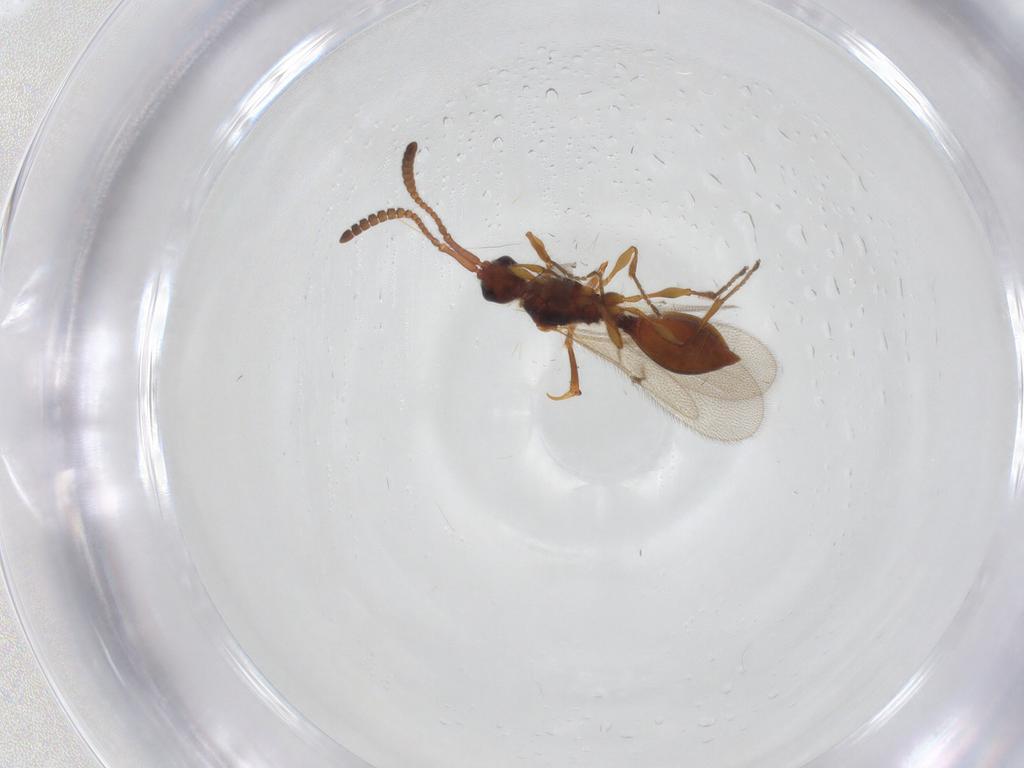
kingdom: Animalia
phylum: Arthropoda
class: Insecta
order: Hymenoptera
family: Diapriidae
